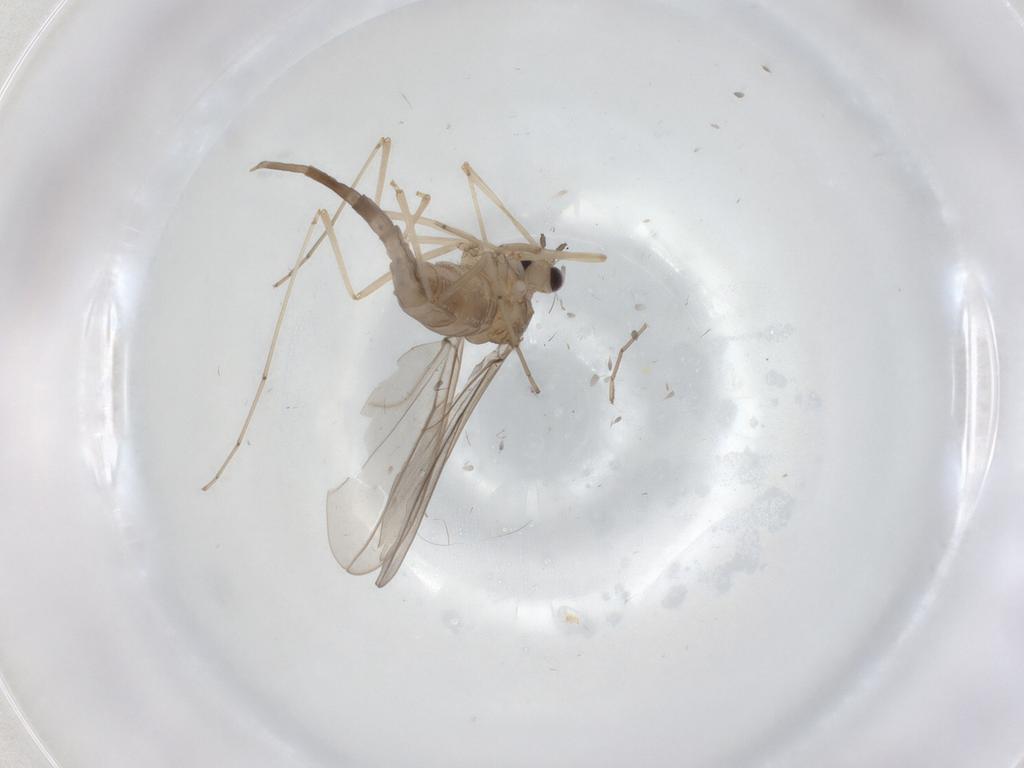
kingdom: Animalia
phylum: Arthropoda
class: Insecta
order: Diptera
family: Cecidomyiidae
